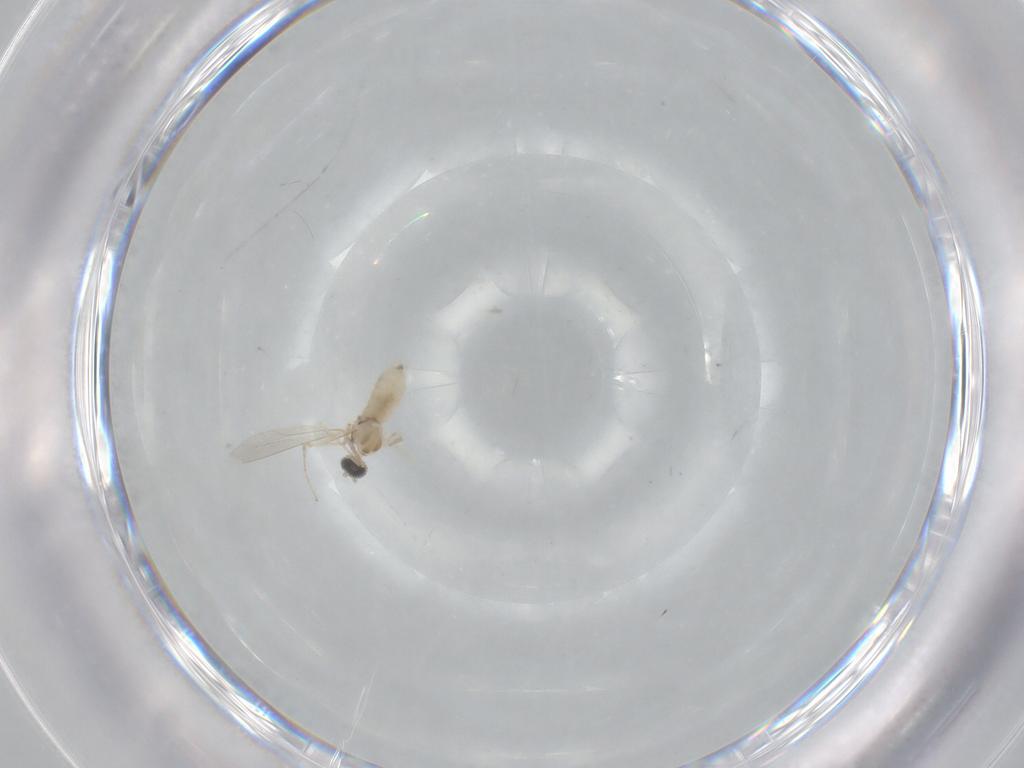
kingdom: Animalia
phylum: Arthropoda
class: Insecta
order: Diptera
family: Cecidomyiidae
